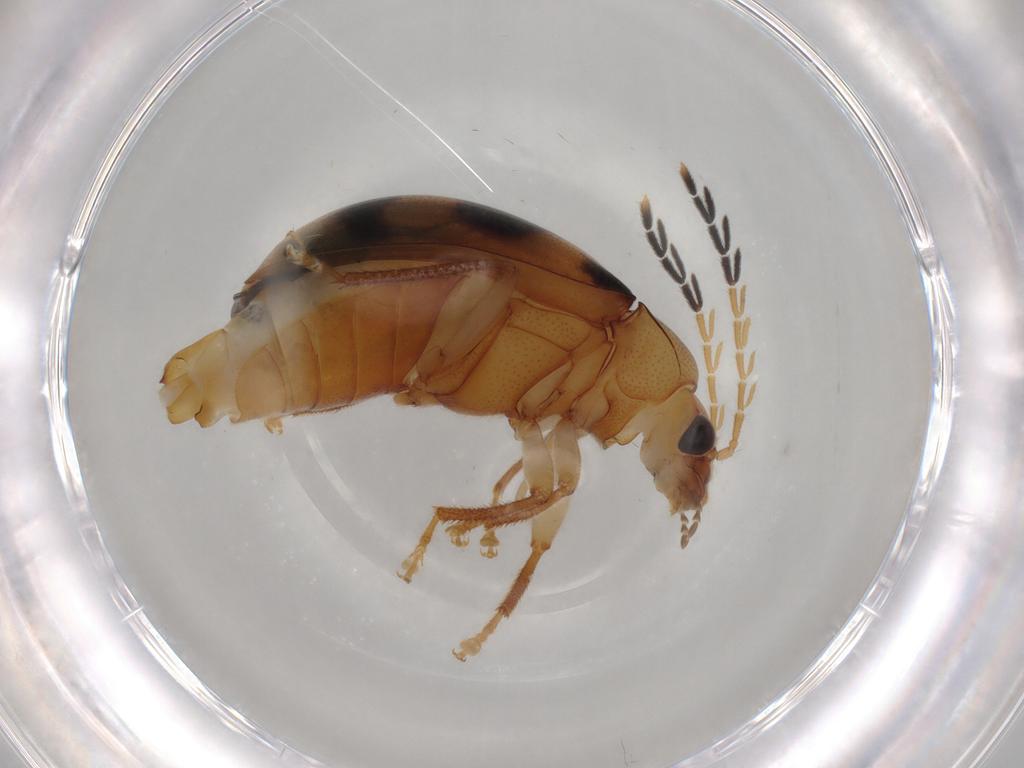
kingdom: Animalia
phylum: Arthropoda
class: Insecta
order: Coleoptera
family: Ptilodactylidae
